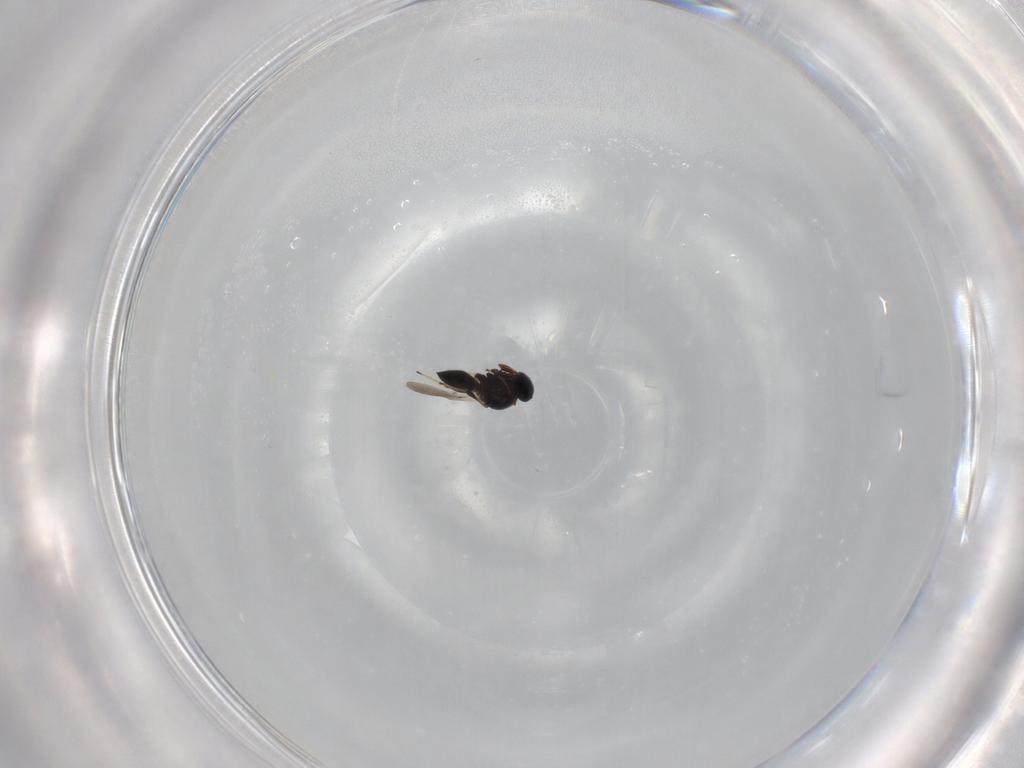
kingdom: Animalia
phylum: Arthropoda
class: Insecta
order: Hymenoptera
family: Platygastridae
